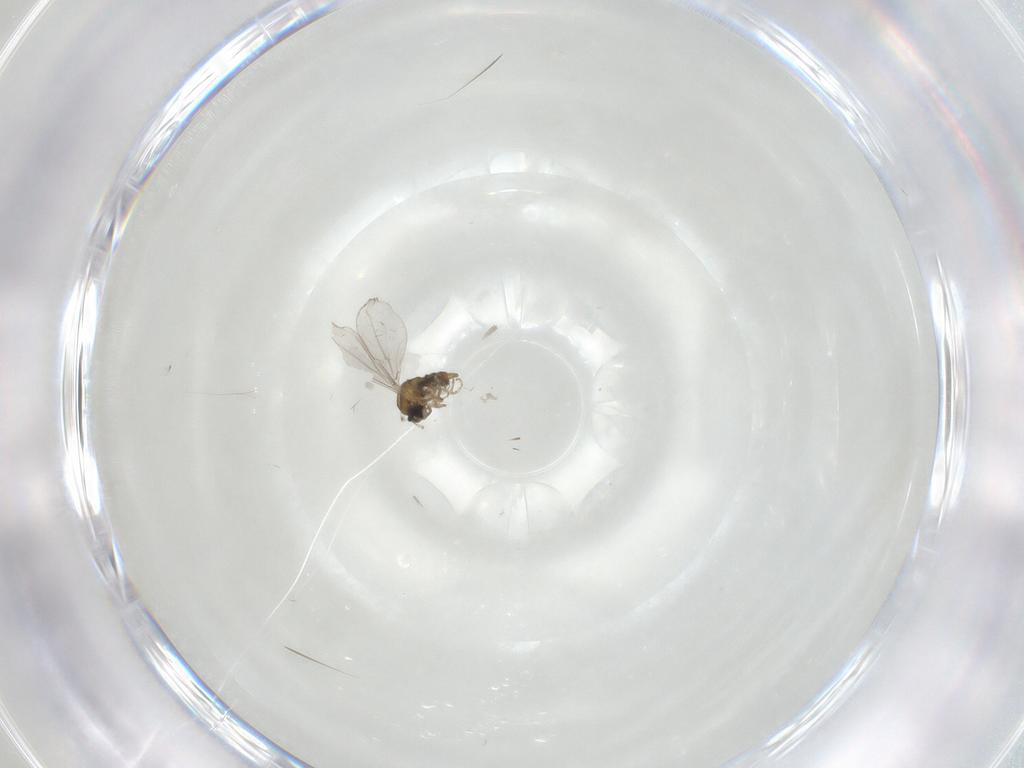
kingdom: Animalia
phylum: Arthropoda
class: Insecta
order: Diptera
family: Cecidomyiidae
